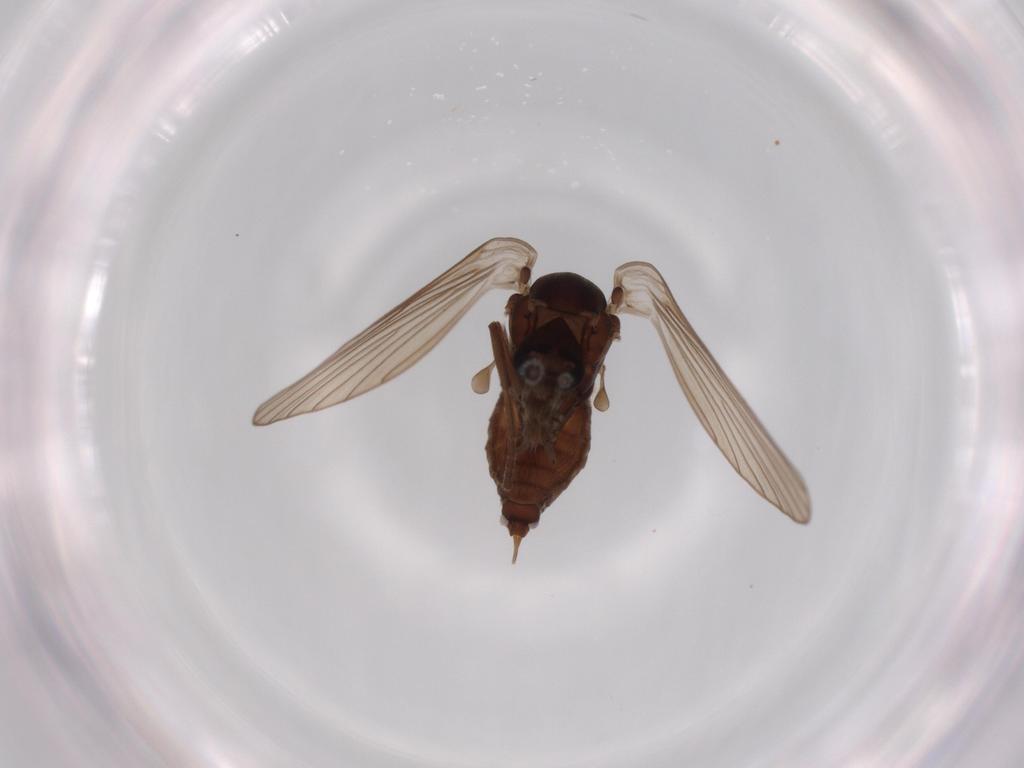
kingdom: Animalia
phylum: Arthropoda
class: Insecta
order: Diptera
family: Psychodidae
